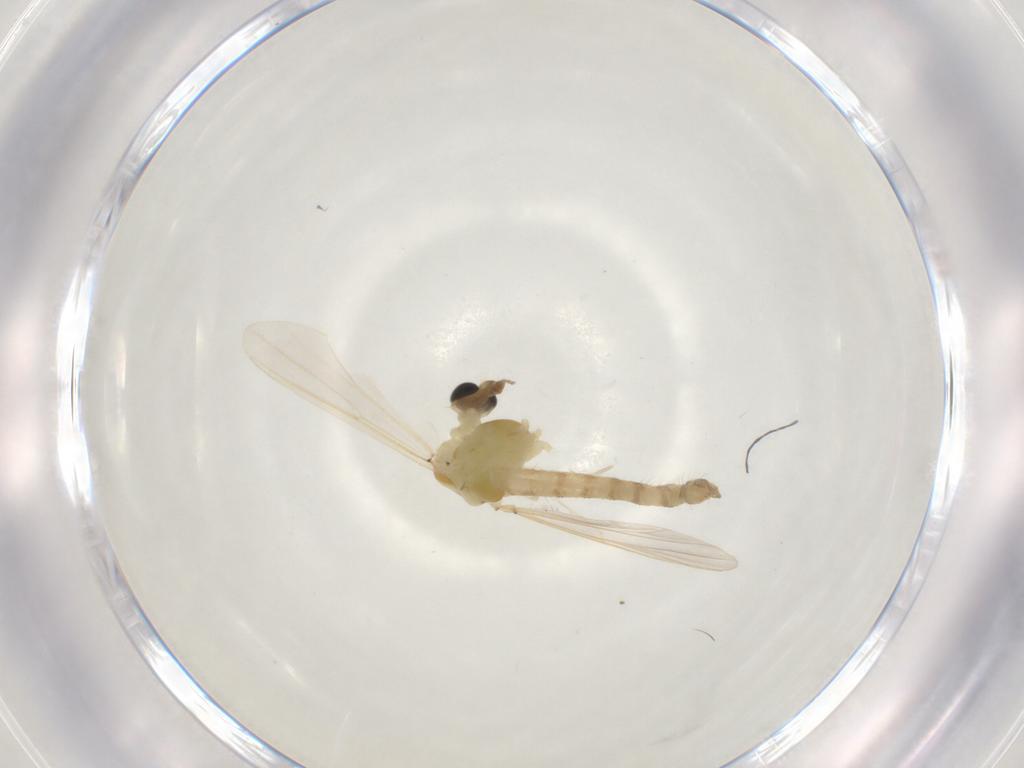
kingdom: Animalia
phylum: Arthropoda
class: Insecta
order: Diptera
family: Chironomidae
